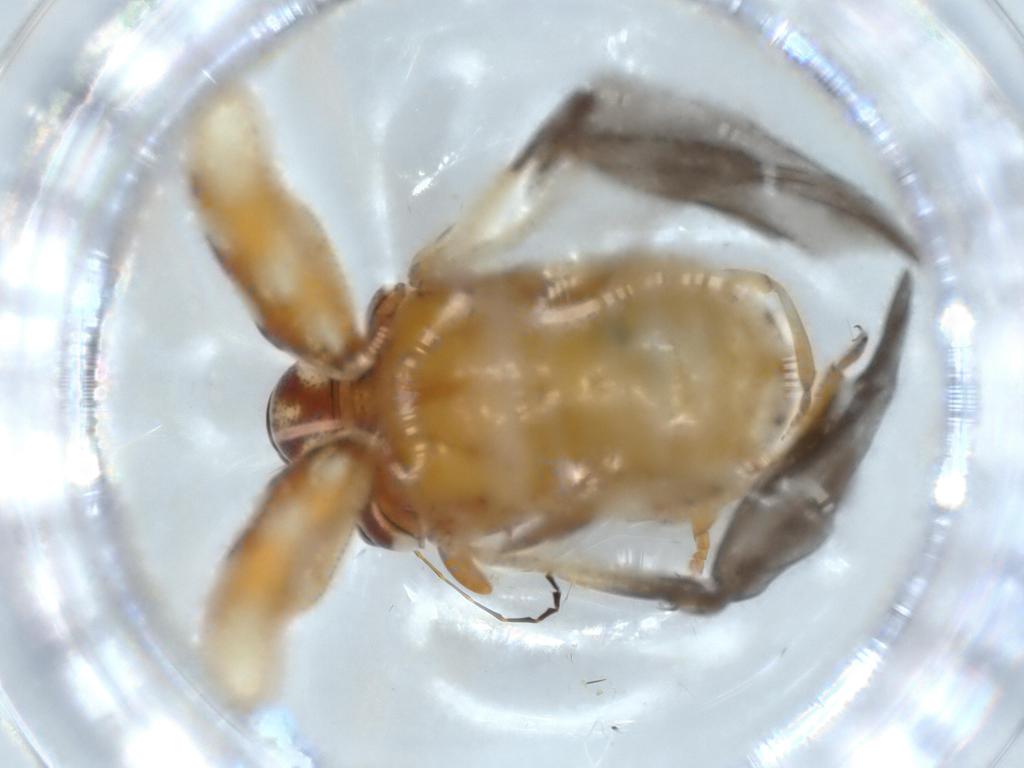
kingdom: Animalia
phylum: Arthropoda
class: Insecta
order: Coleoptera
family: Chrysomelidae
